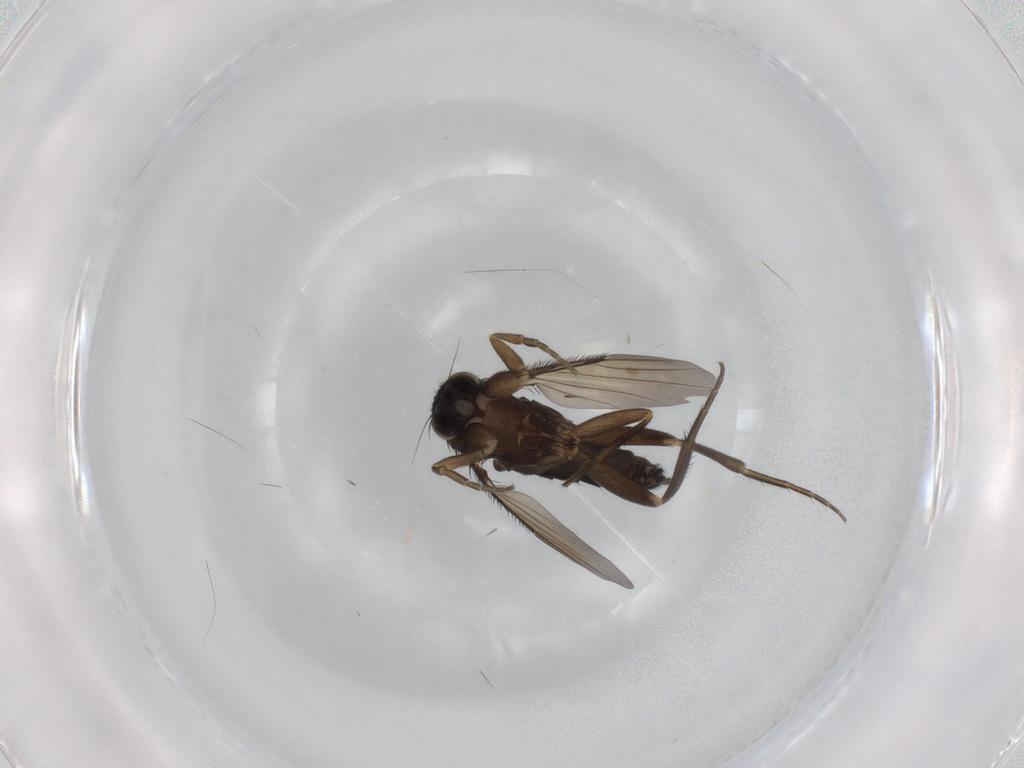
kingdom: Animalia
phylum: Arthropoda
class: Insecta
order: Diptera
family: Phoridae
